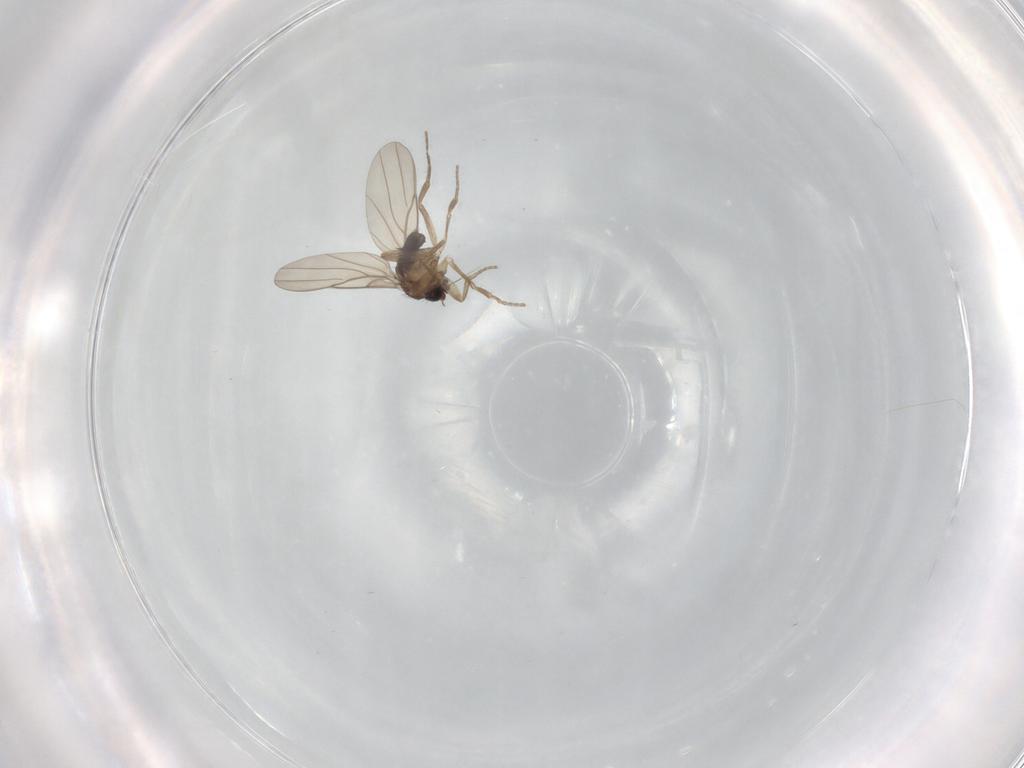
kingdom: Animalia
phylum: Arthropoda
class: Insecta
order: Diptera
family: Phoridae
